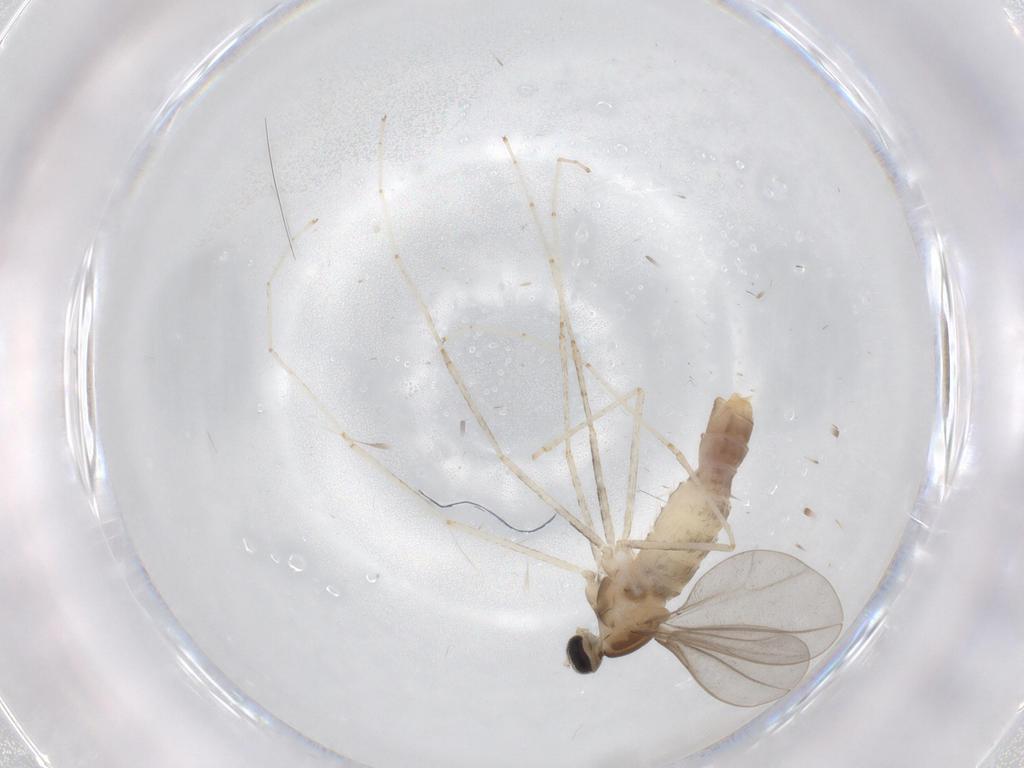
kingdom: Animalia
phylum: Arthropoda
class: Insecta
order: Diptera
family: Cecidomyiidae
